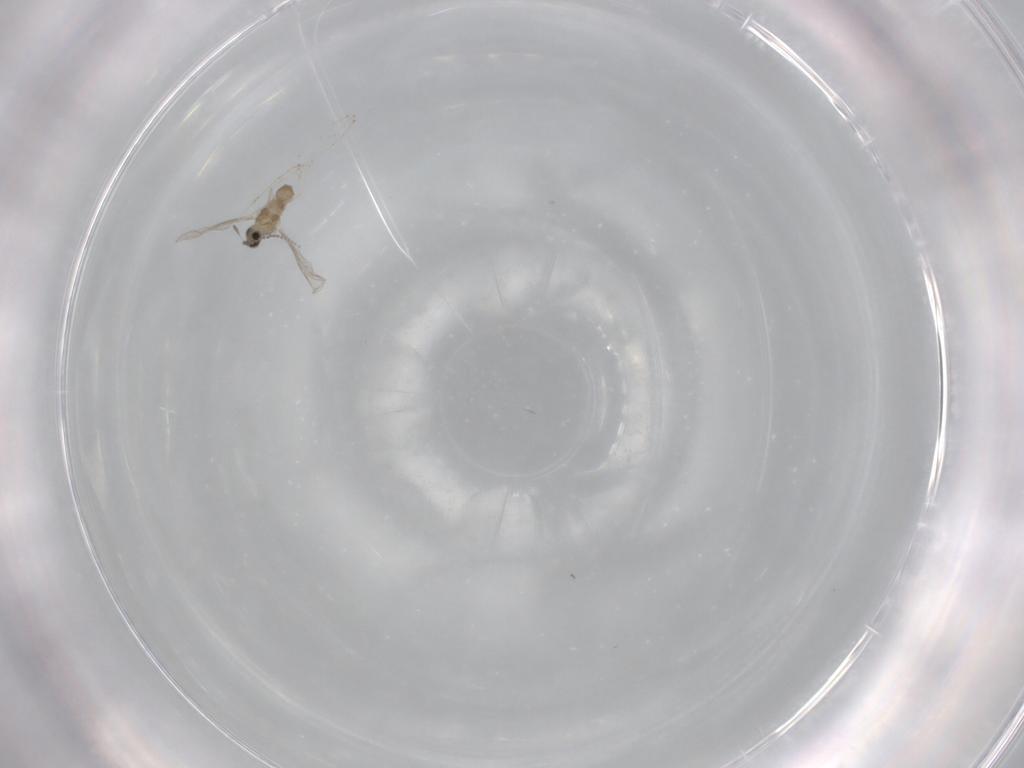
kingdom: Animalia
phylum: Arthropoda
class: Insecta
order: Diptera
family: Cecidomyiidae
